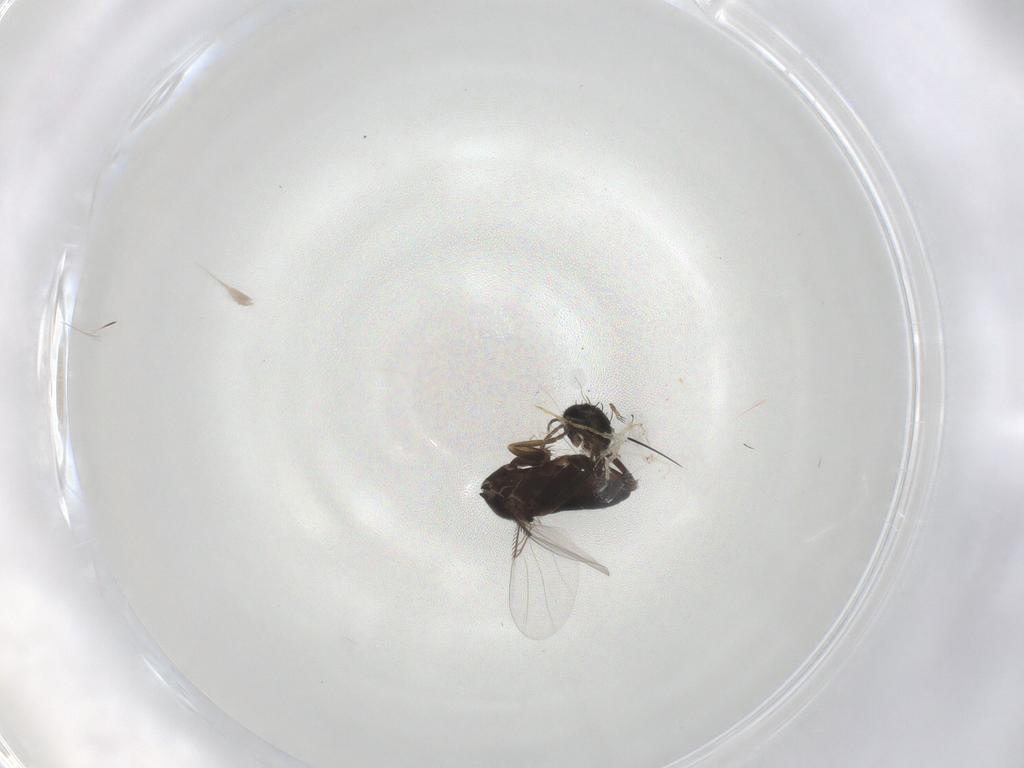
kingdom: Animalia
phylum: Arthropoda
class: Insecta
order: Diptera
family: Phoridae
